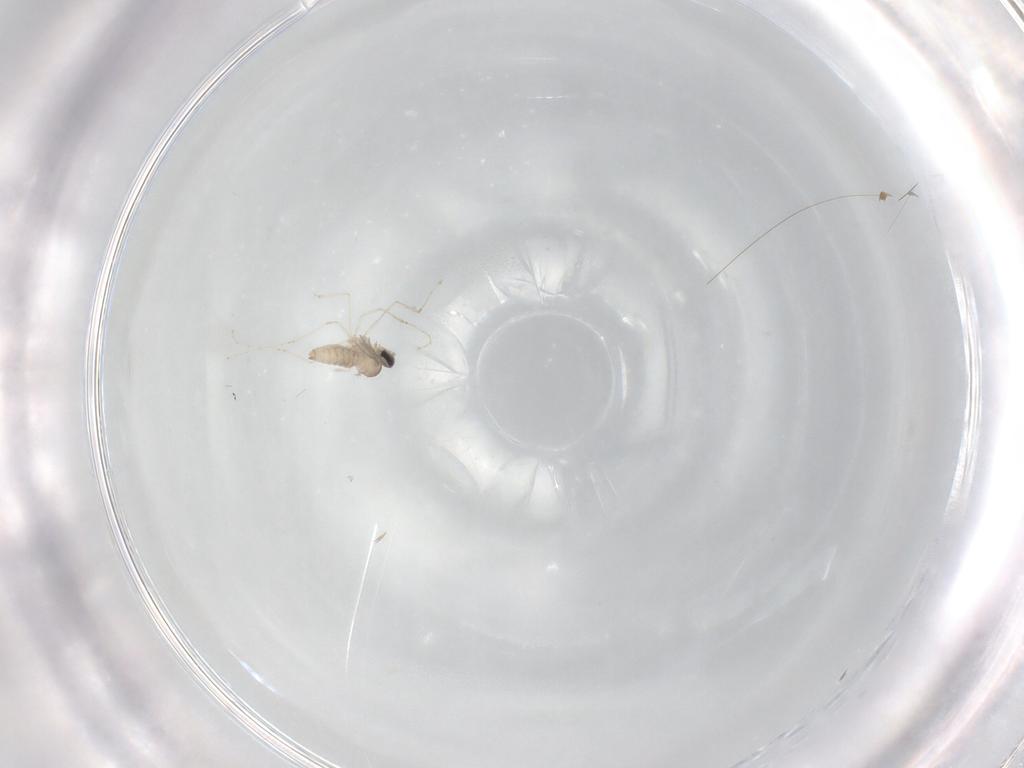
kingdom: Animalia
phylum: Arthropoda
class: Insecta
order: Diptera
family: Cecidomyiidae
